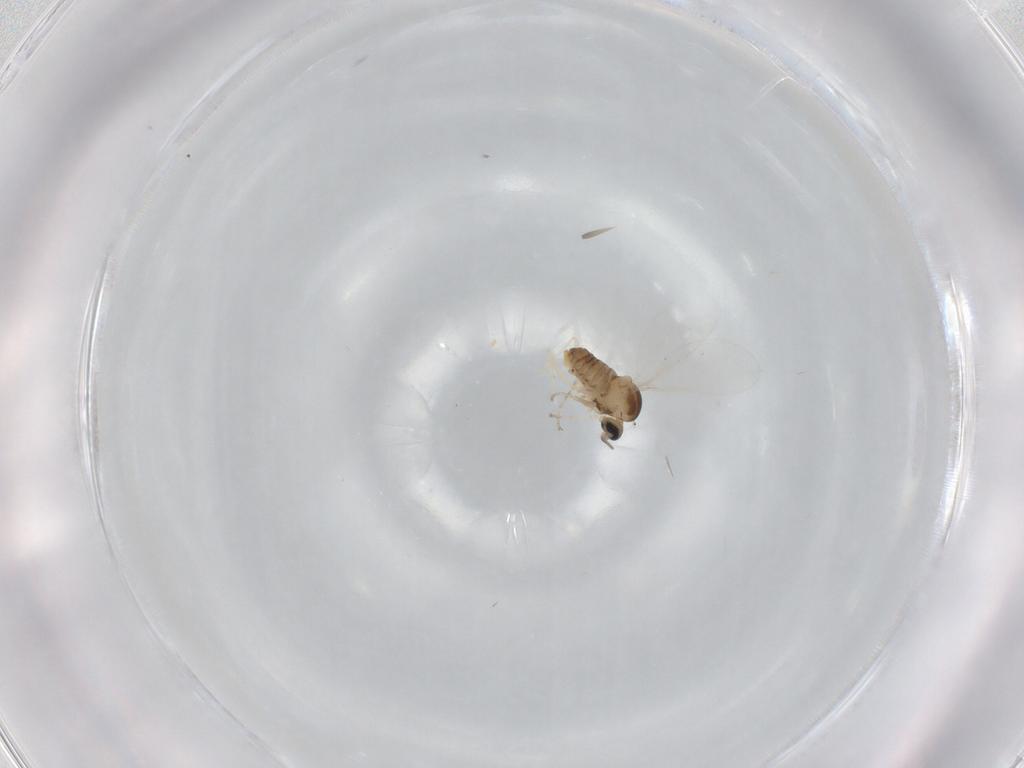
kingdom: Animalia
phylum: Arthropoda
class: Insecta
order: Diptera
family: Cecidomyiidae
